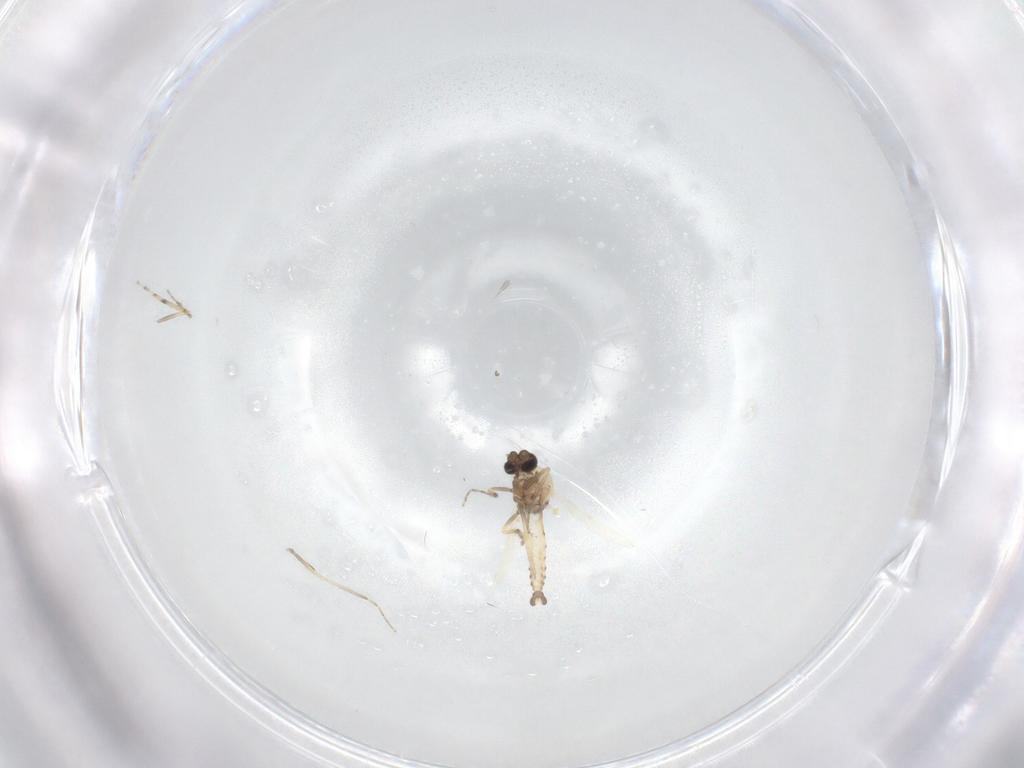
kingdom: Animalia
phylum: Arthropoda
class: Insecta
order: Diptera
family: Ceratopogonidae
